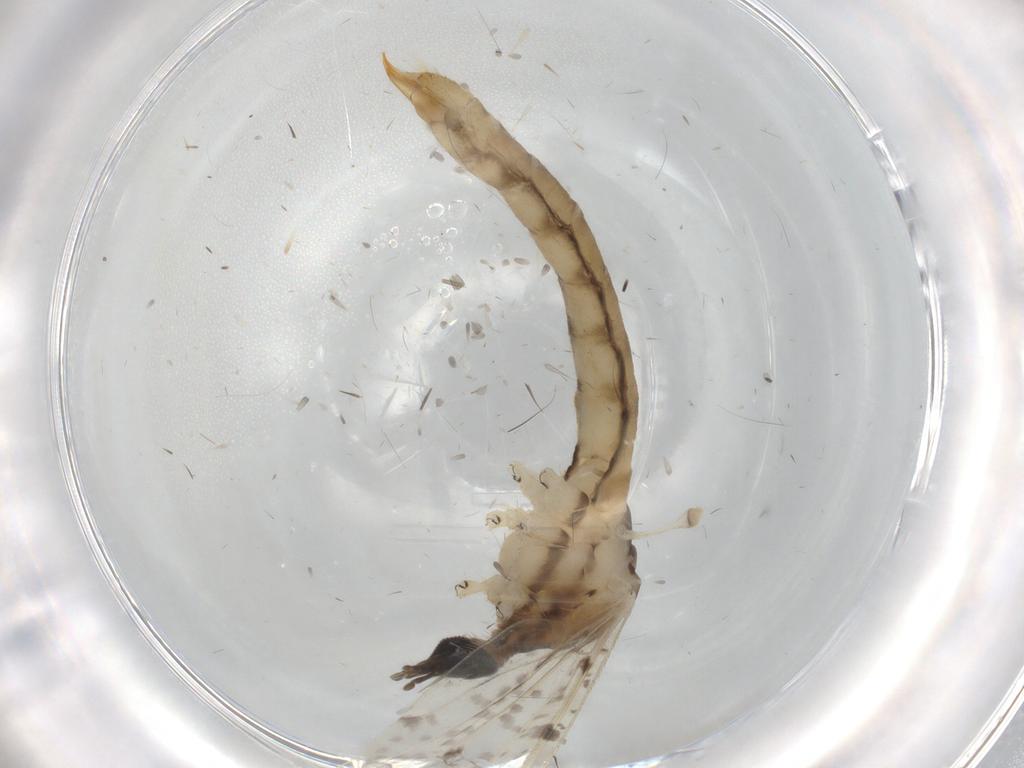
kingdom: Animalia
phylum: Arthropoda
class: Insecta
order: Diptera
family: Limoniidae
